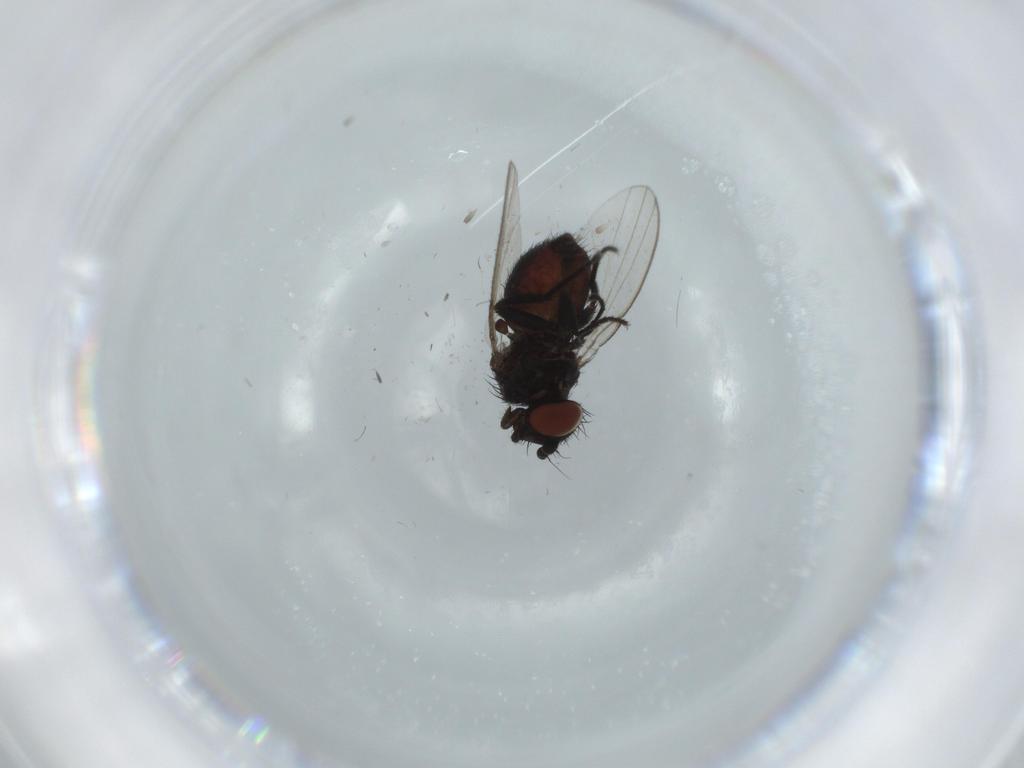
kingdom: Animalia
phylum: Arthropoda
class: Insecta
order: Diptera
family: Milichiidae
